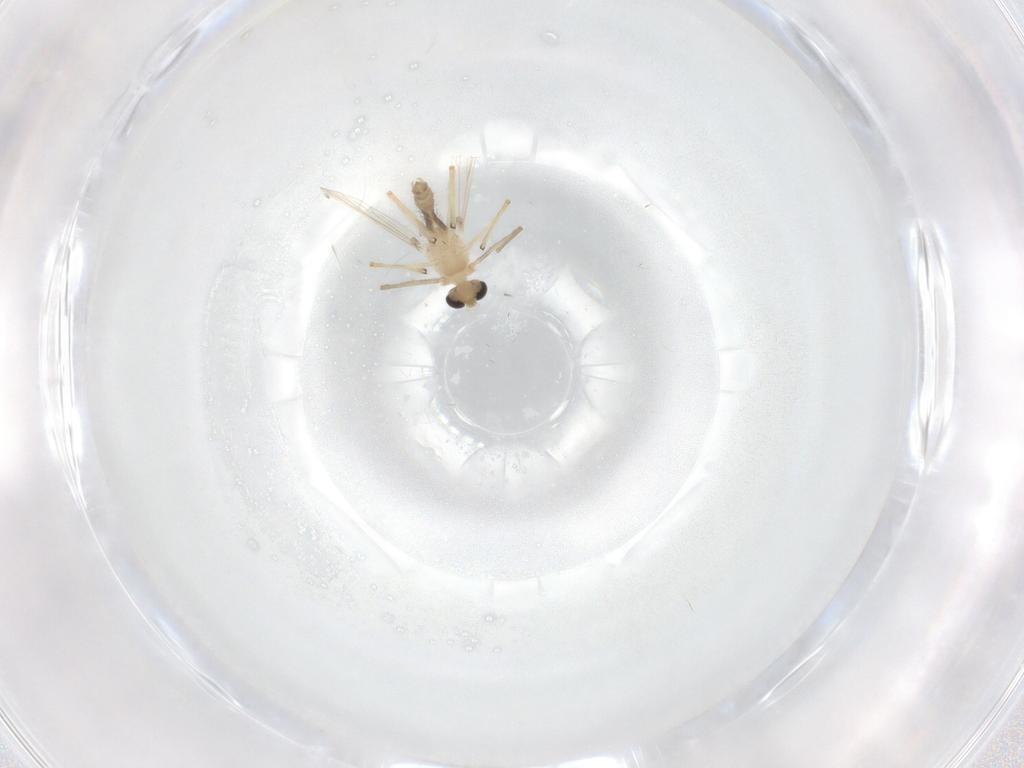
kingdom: Animalia
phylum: Arthropoda
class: Insecta
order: Diptera
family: Chironomidae
